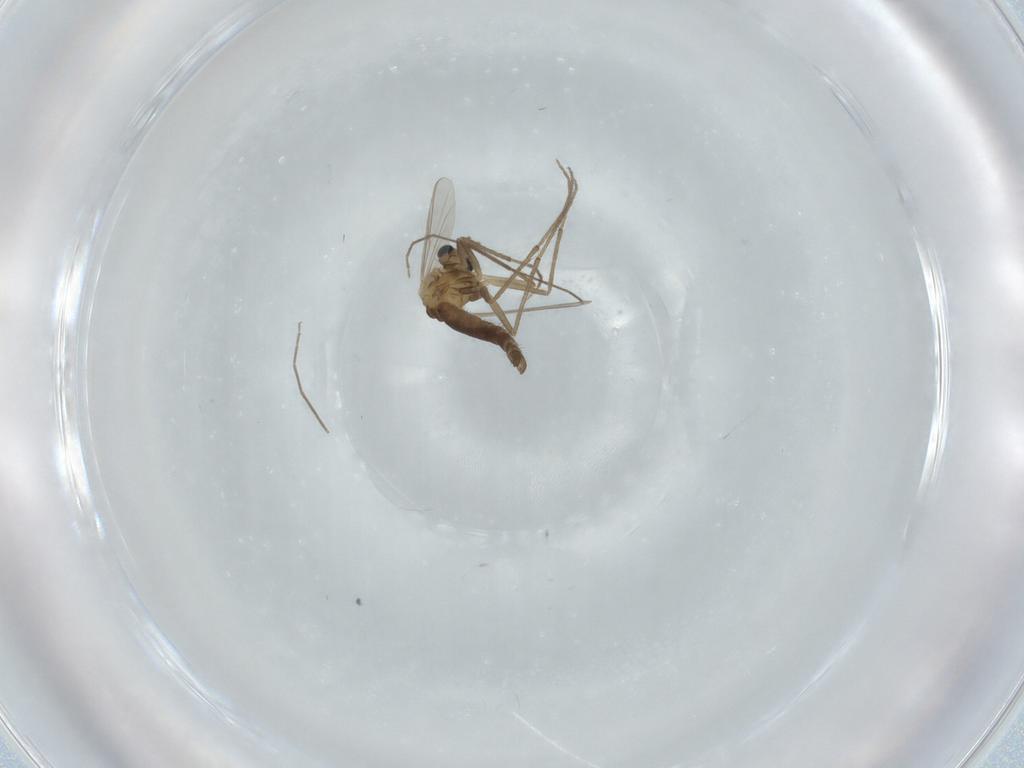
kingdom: Animalia
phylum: Arthropoda
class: Insecta
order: Diptera
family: Chironomidae
